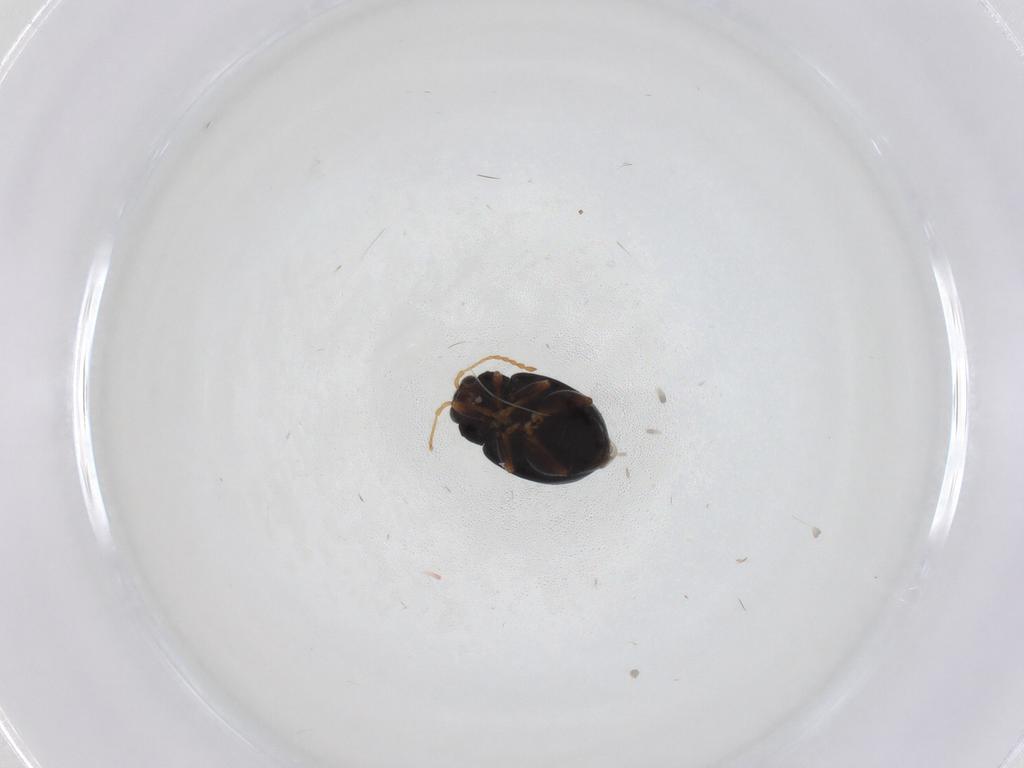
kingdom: Animalia
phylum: Arthropoda
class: Insecta
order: Coleoptera
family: Chrysomelidae
